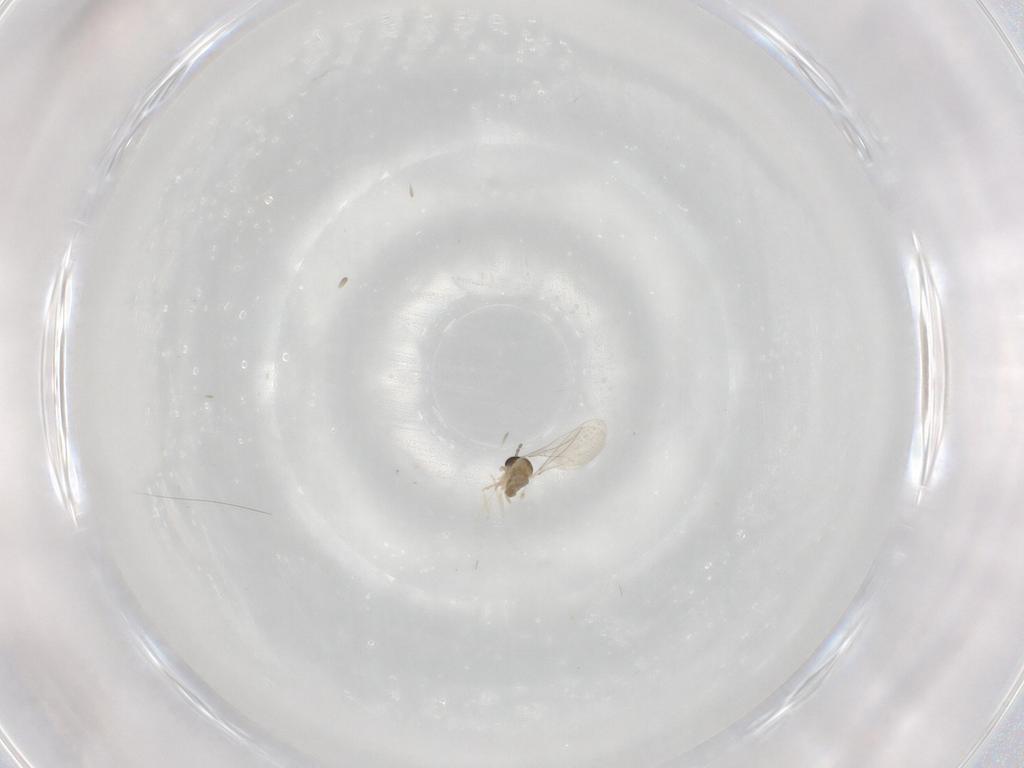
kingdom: Animalia
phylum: Arthropoda
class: Insecta
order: Diptera
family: Cecidomyiidae
